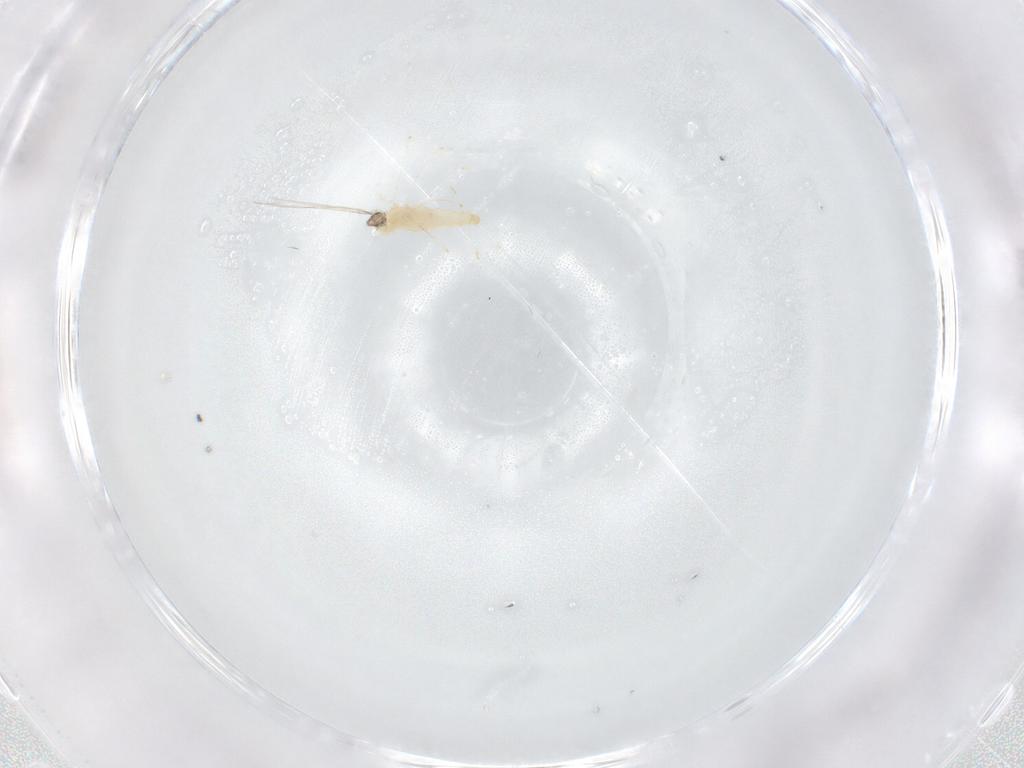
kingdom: Animalia
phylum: Arthropoda
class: Insecta
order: Diptera
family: Cecidomyiidae
